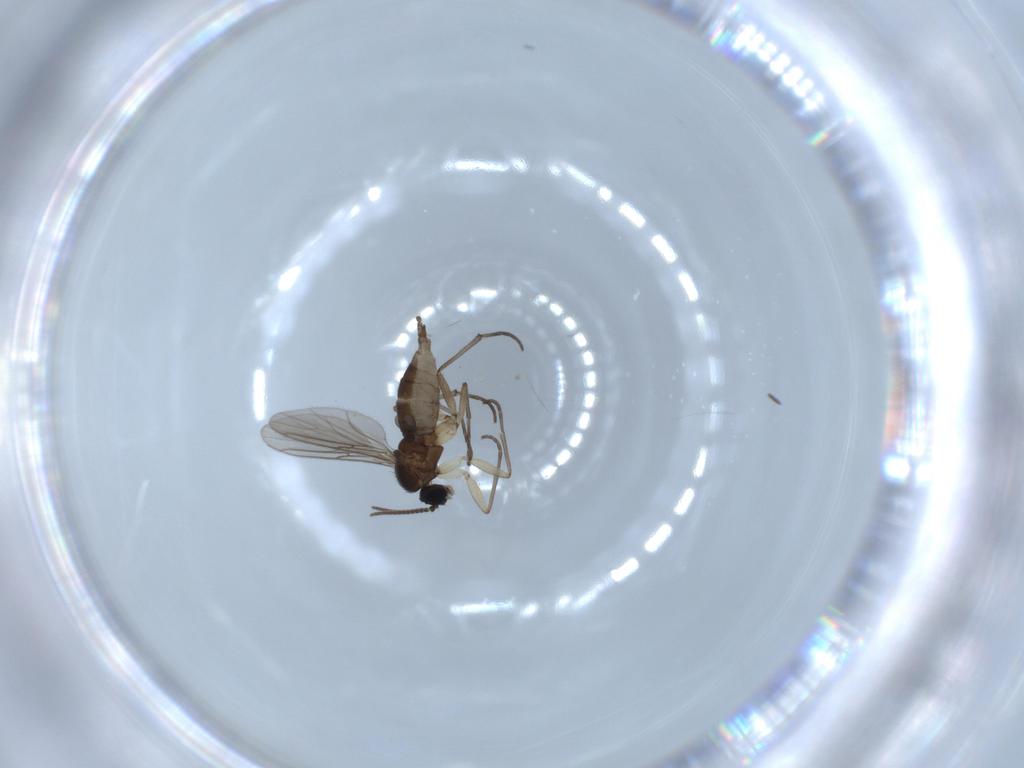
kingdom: Animalia
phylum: Arthropoda
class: Insecta
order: Diptera
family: Sciaridae
